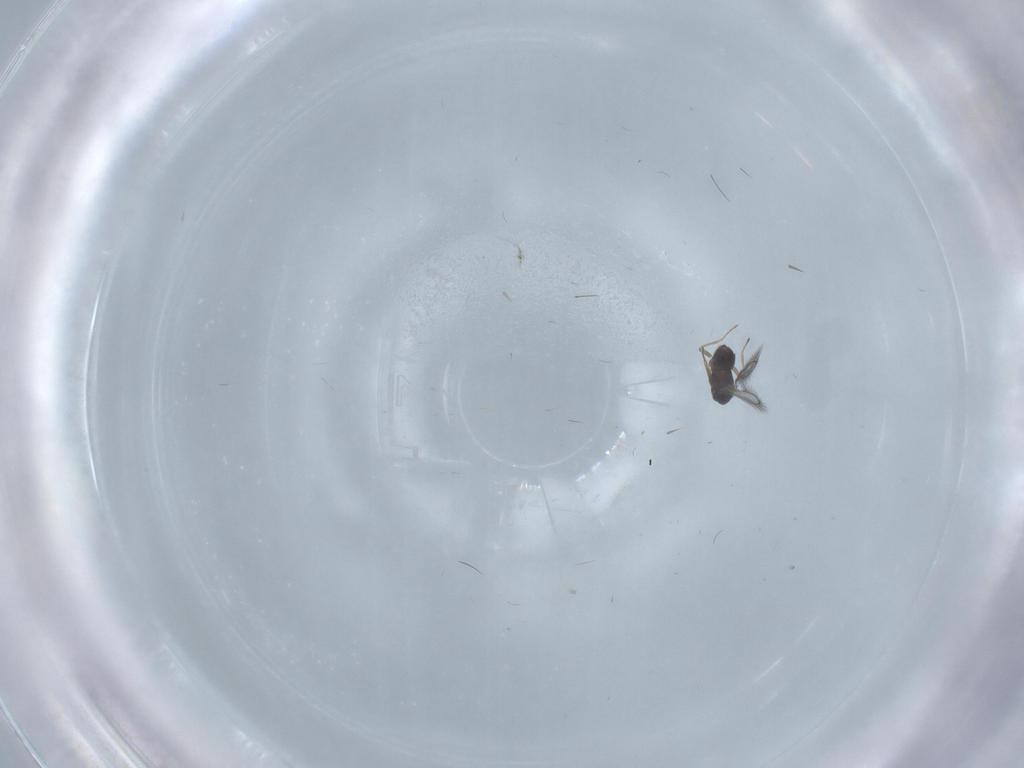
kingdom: Animalia
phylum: Arthropoda
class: Insecta
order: Hymenoptera
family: Mymaridae
